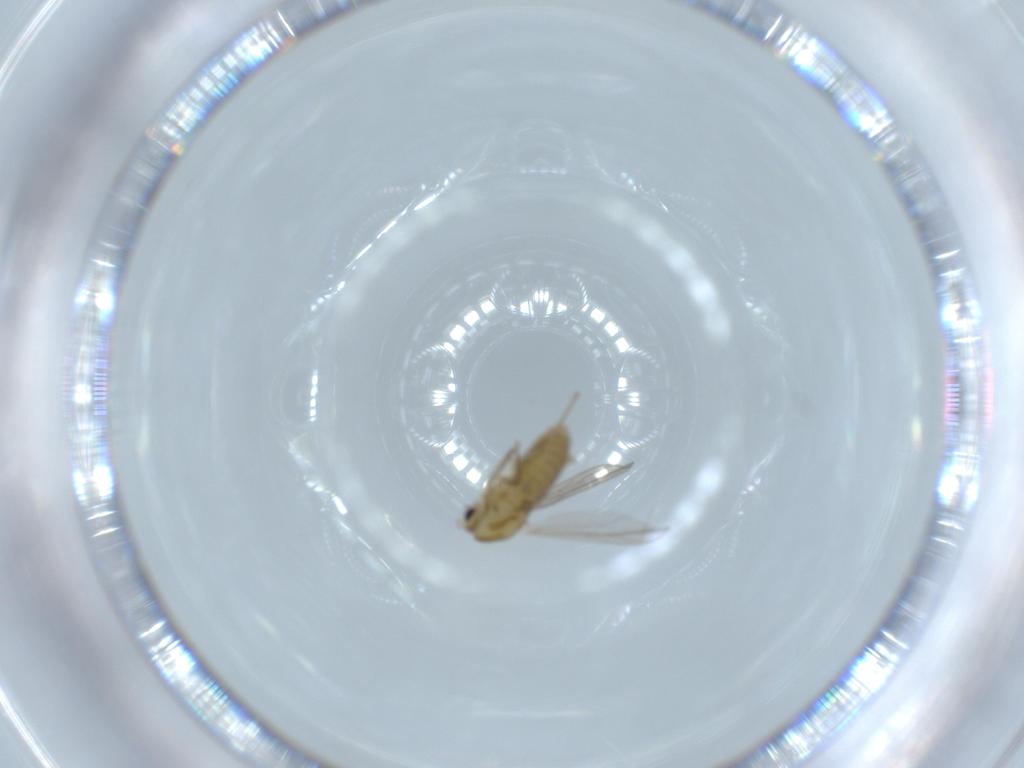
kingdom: Animalia
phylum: Arthropoda
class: Insecta
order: Diptera
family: Chironomidae
